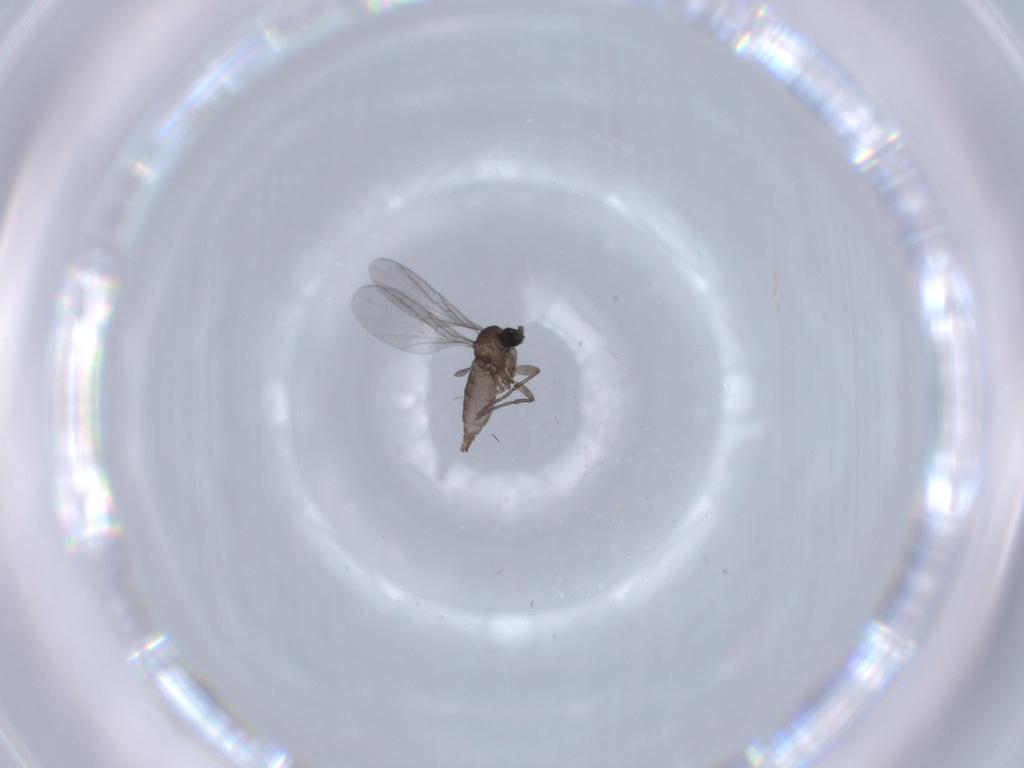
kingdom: Animalia
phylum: Arthropoda
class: Insecta
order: Diptera
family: Sciaridae
